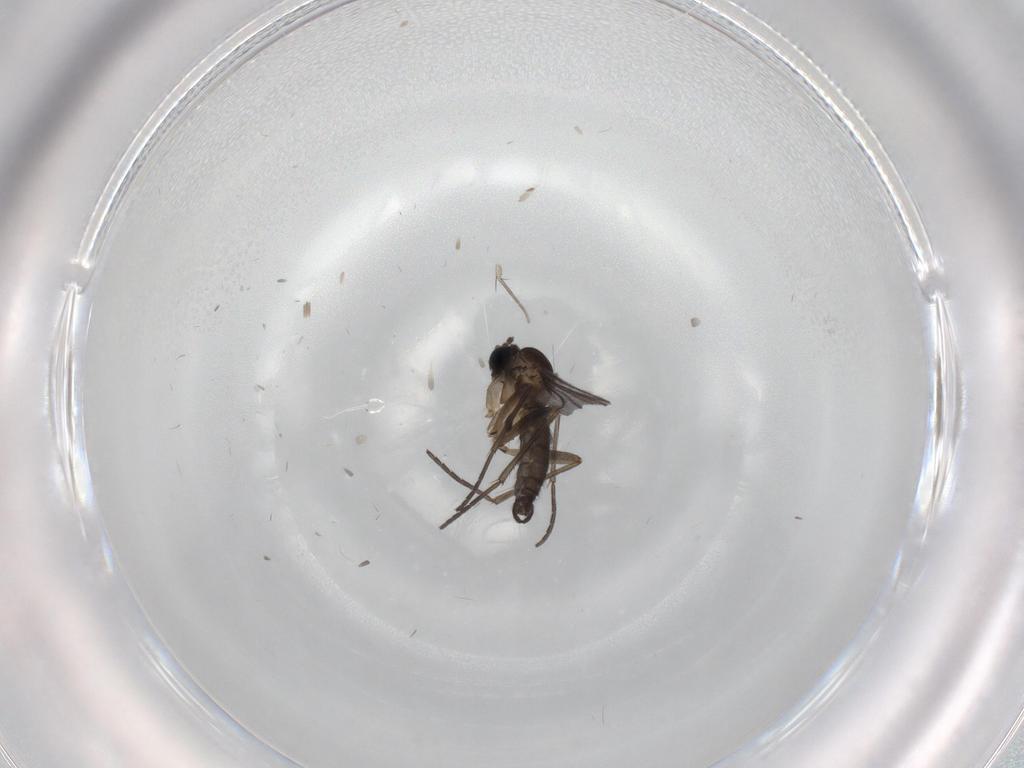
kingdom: Animalia
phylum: Arthropoda
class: Insecta
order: Diptera
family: Sciaridae
